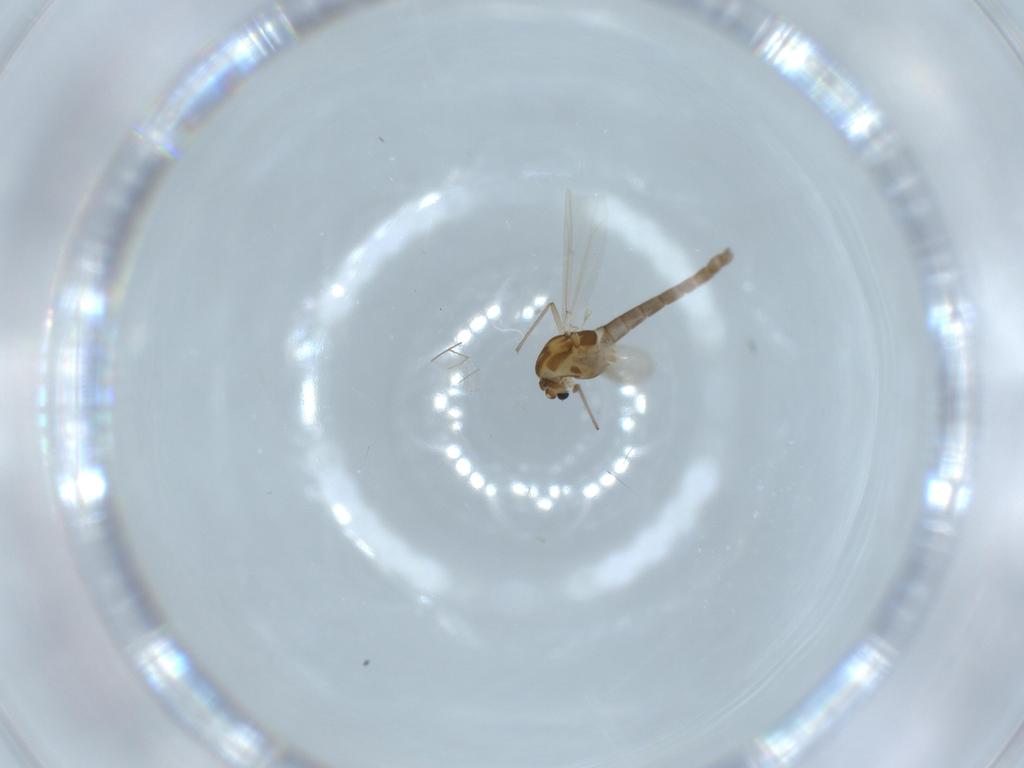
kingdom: Animalia
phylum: Arthropoda
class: Insecta
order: Diptera
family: Chironomidae
